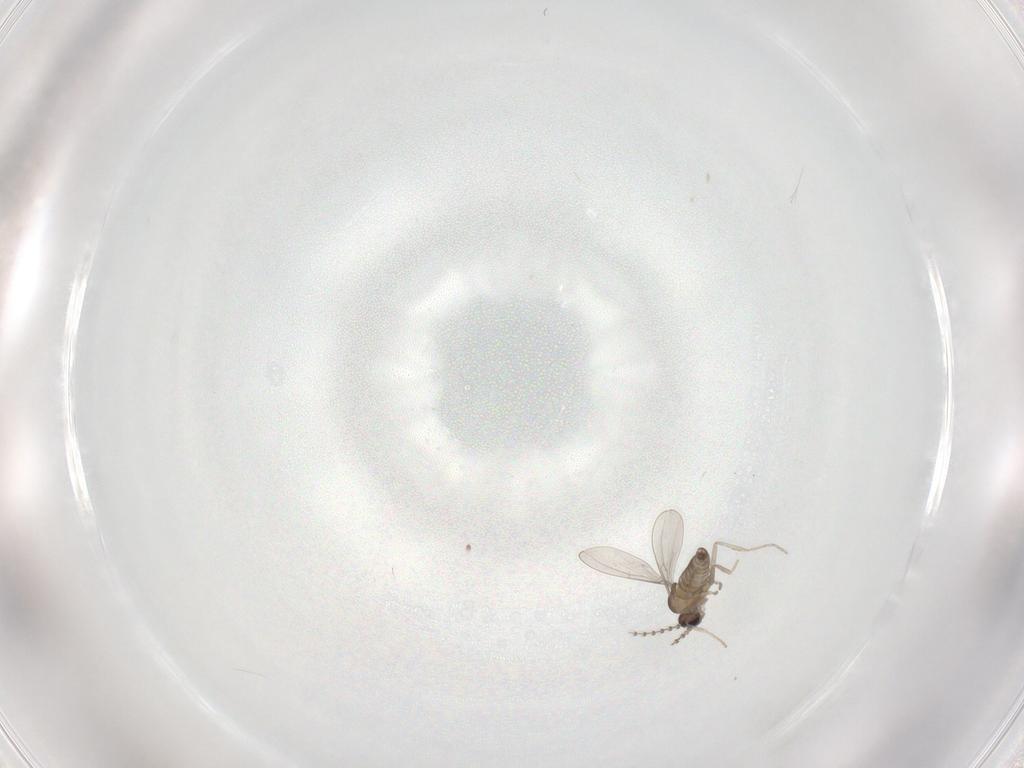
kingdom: Animalia
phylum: Arthropoda
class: Insecta
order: Diptera
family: Cecidomyiidae
